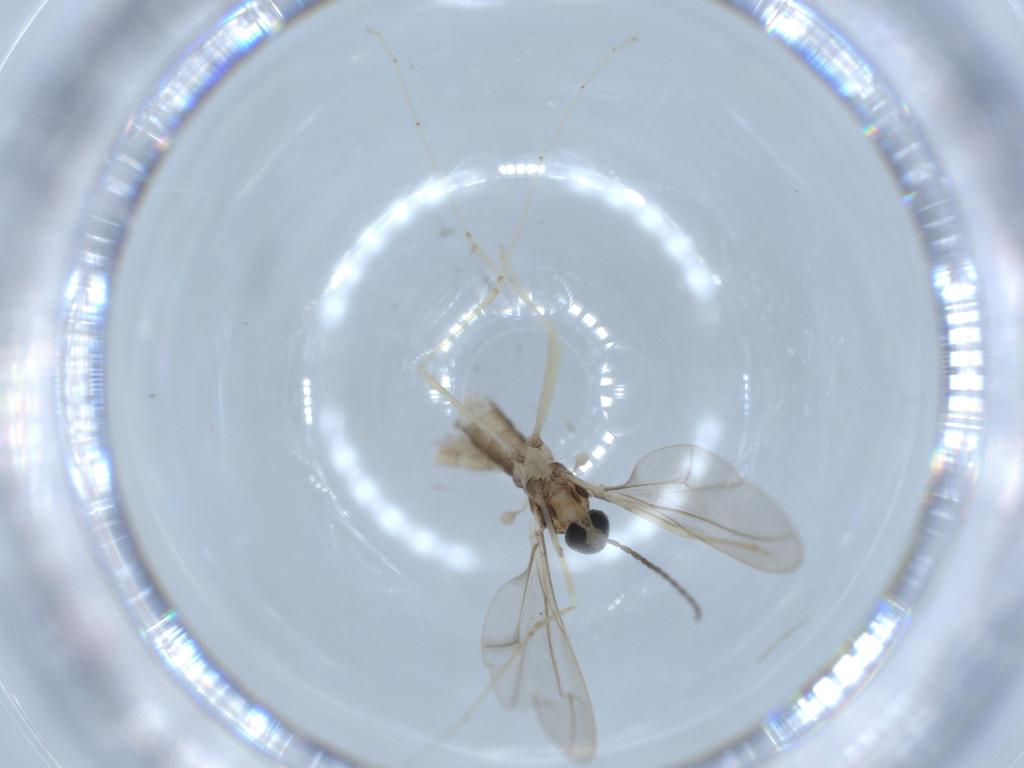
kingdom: Animalia
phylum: Arthropoda
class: Insecta
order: Diptera
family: Cecidomyiidae
